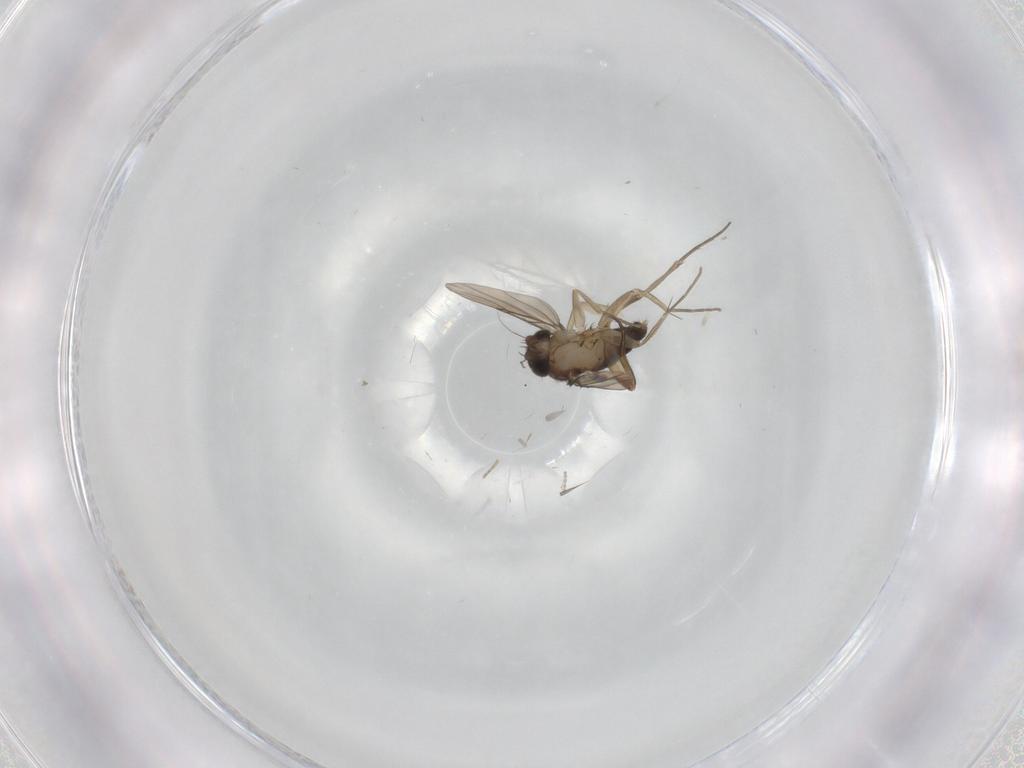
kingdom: Animalia
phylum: Arthropoda
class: Insecta
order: Diptera
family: Phoridae
